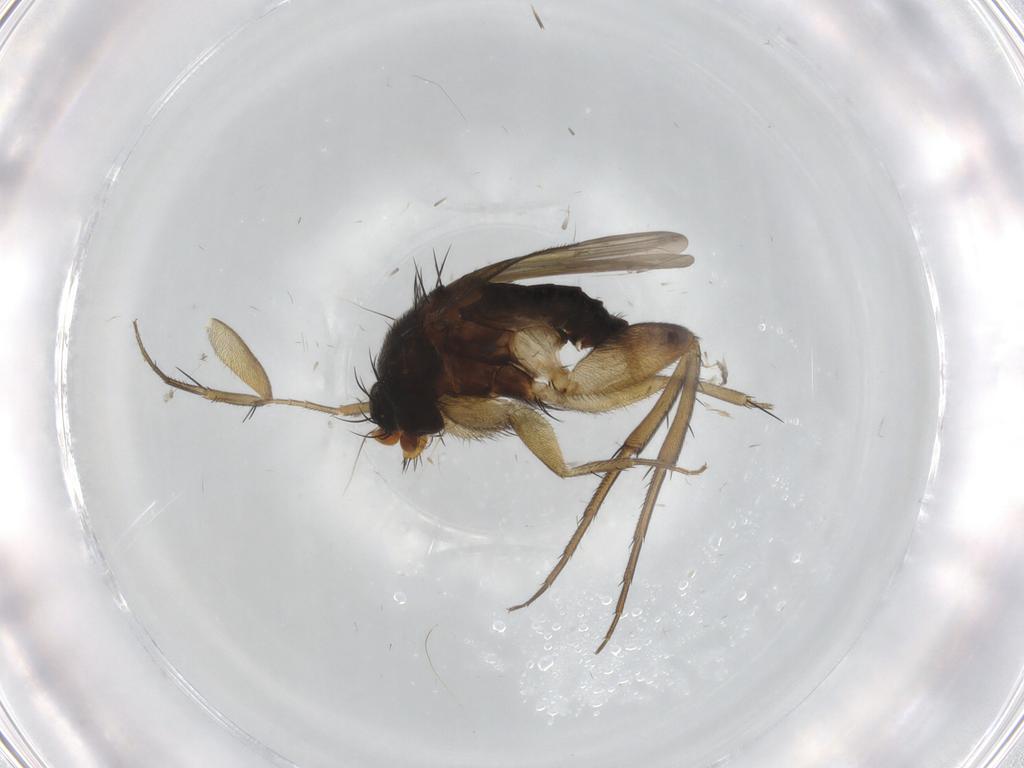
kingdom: Animalia
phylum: Arthropoda
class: Insecta
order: Diptera
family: Phoridae
